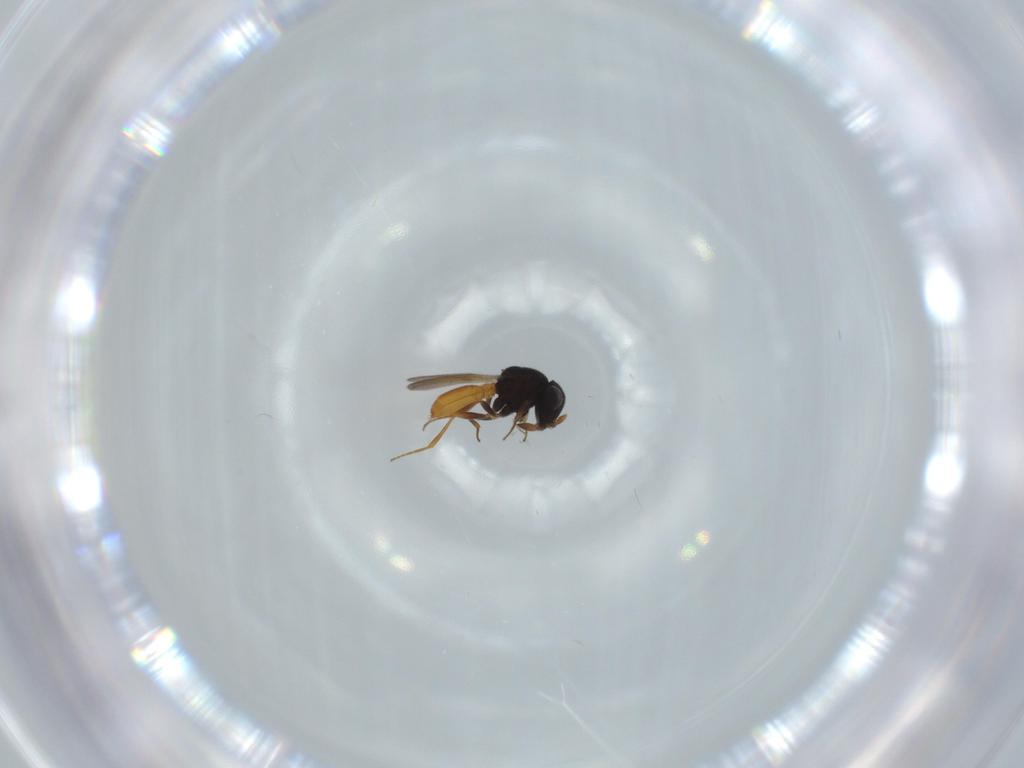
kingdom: Animalia
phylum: Arthropoda
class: Insecta
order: Hymenoptera
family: Scelionidae
